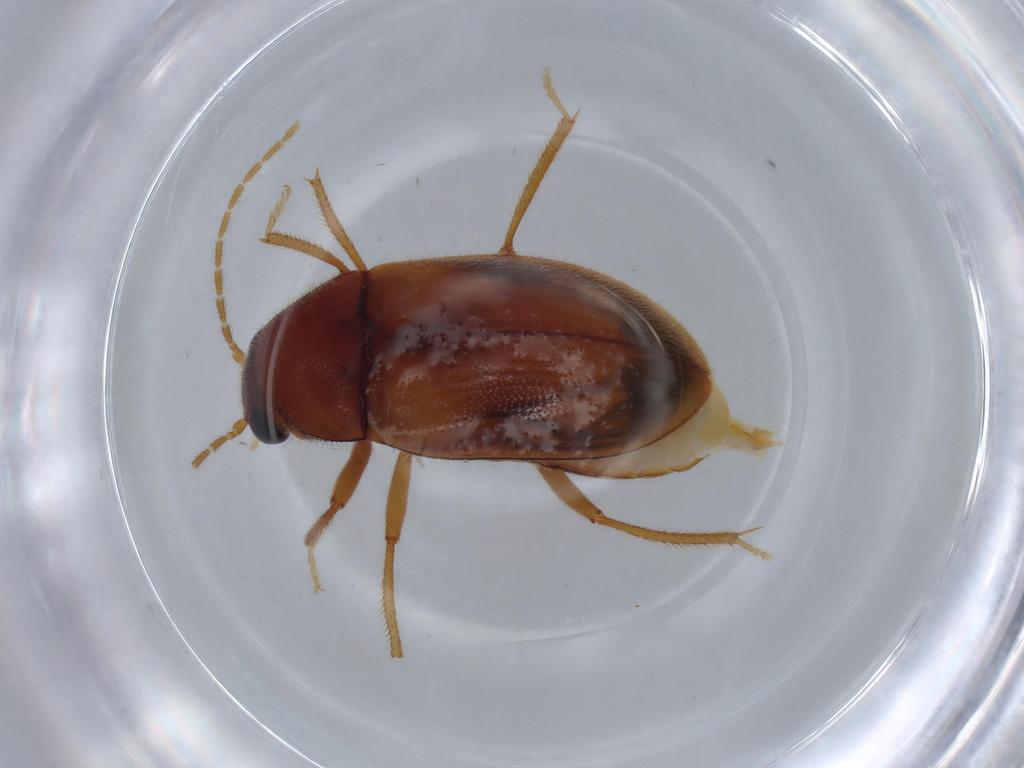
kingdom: Animalia
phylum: Arthropoda
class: Insecta
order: Coleoptera
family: Ptilodactylidae
